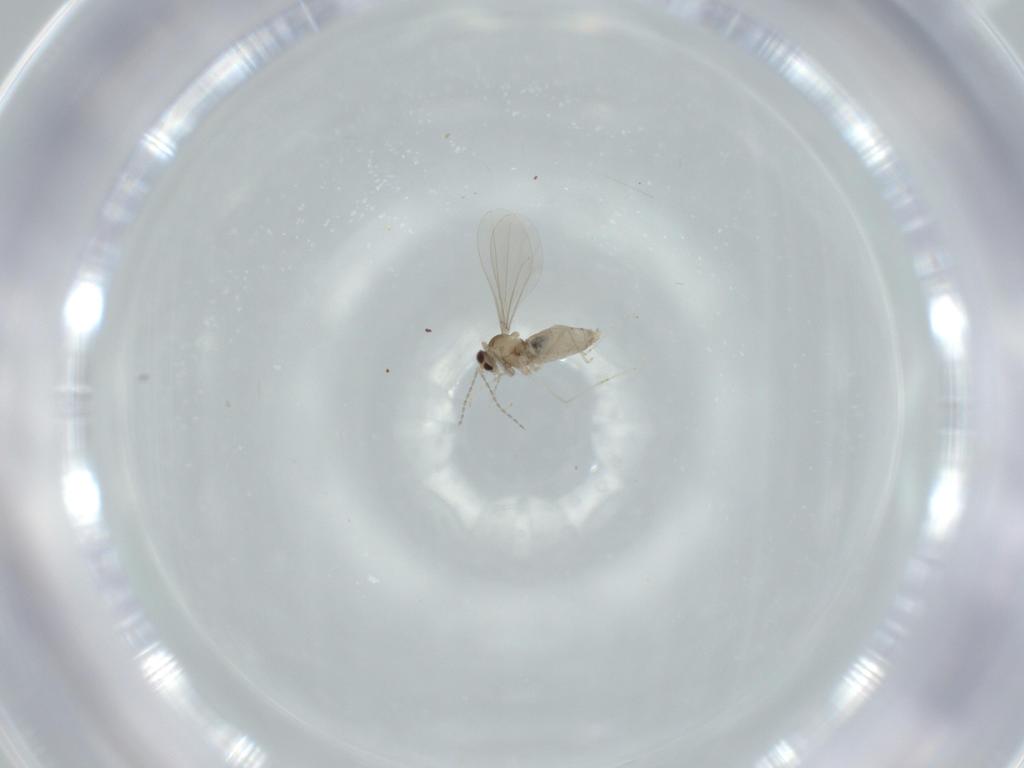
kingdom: Animalia
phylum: Arthropoda
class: Insecta
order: Diptera
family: Cecidomyiidae
